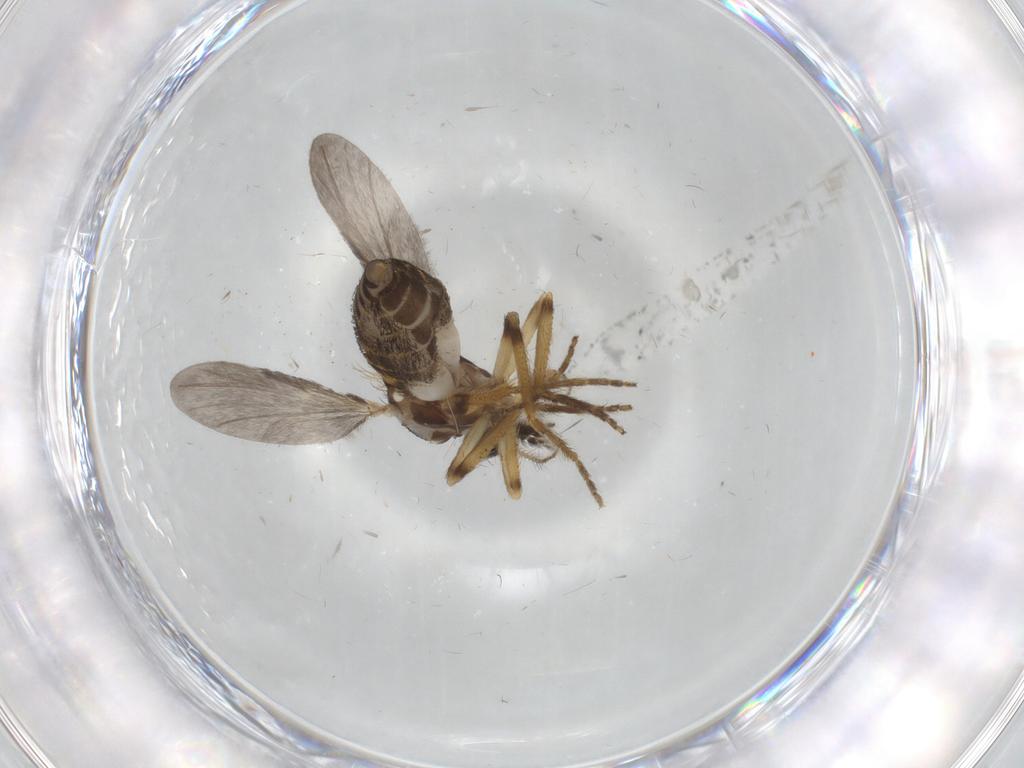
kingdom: Animalia
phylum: Arthropoda
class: Insecta
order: Diptera
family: Ceratopogonidae
